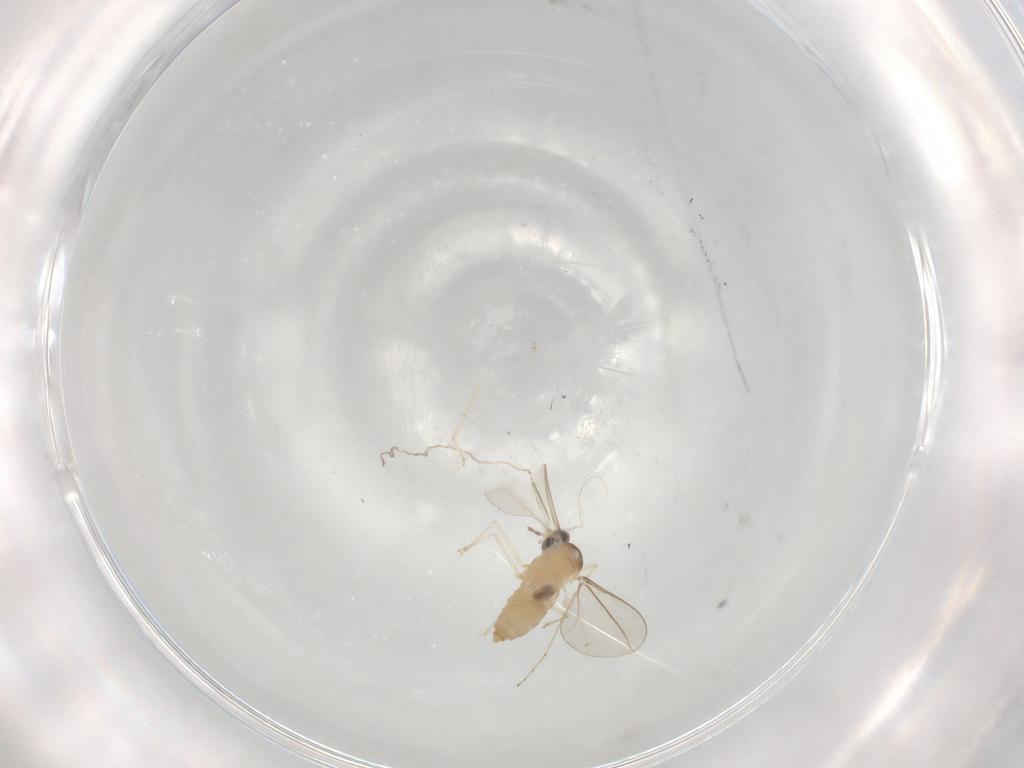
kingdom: Animalia
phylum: Arthropoda
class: Insecta
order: Diptera
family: Cecidomyiidae
